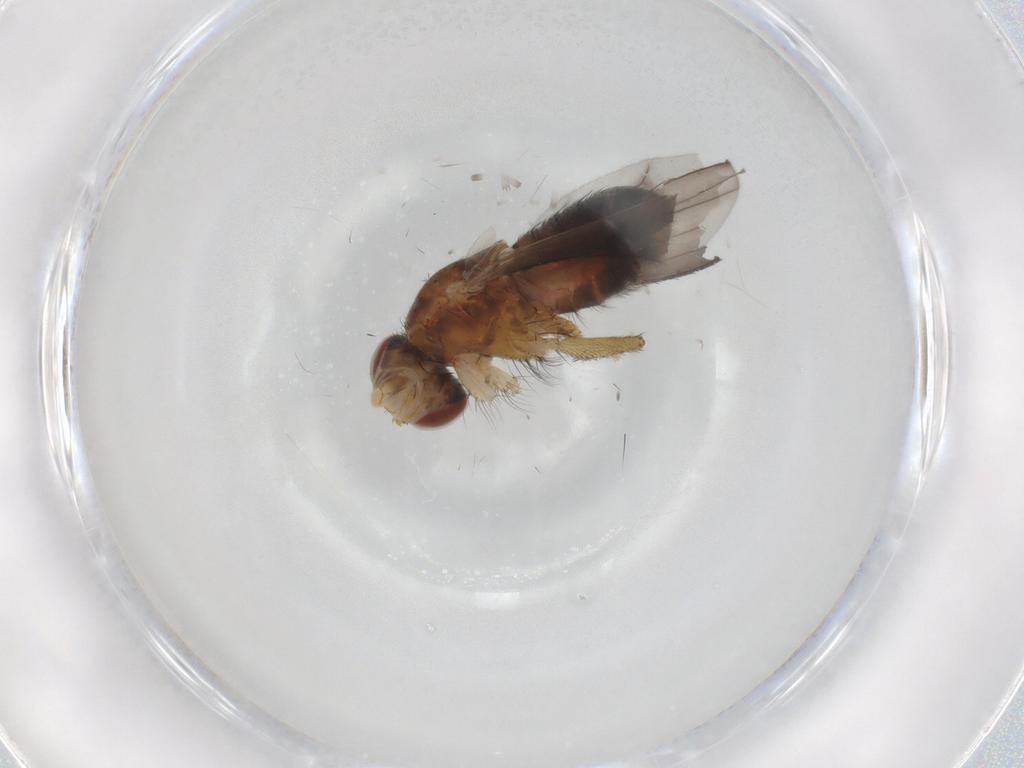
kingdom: Animalia
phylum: Arthropoda
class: Insecta
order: Diptera
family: Heleomyzidae
